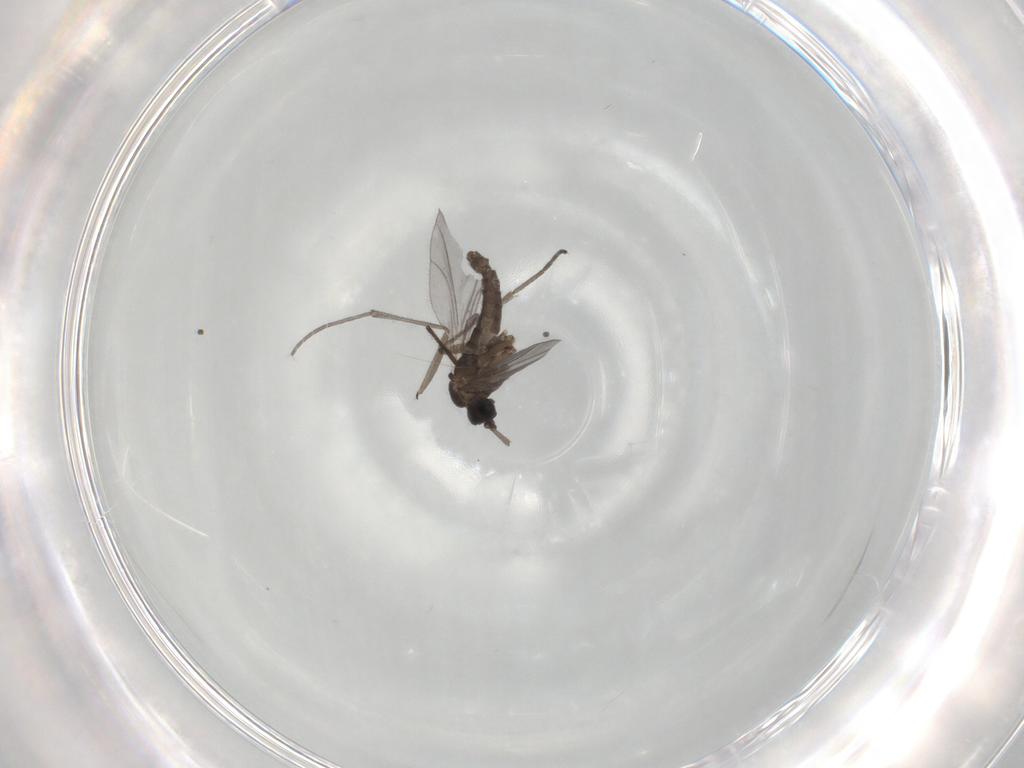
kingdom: Animalia
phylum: Arthropoda
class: Insecta
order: Diptera
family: Sciaridae
